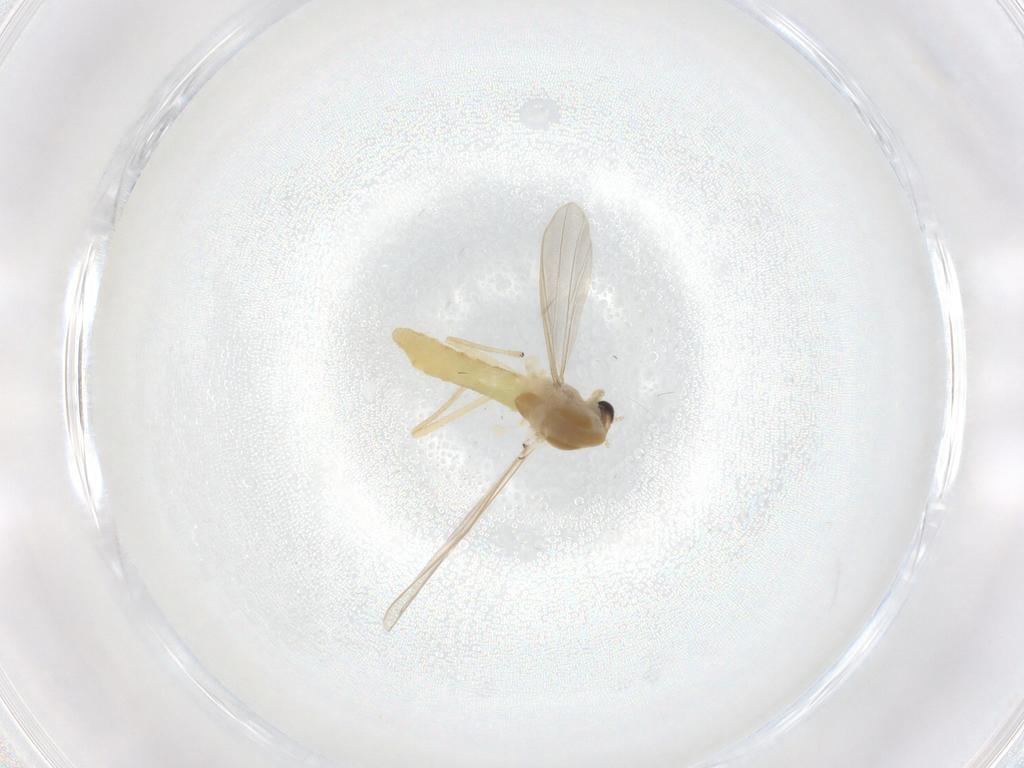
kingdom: Animalia
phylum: Arthropoda
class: Insecta
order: Diptera
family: Chironomidae
